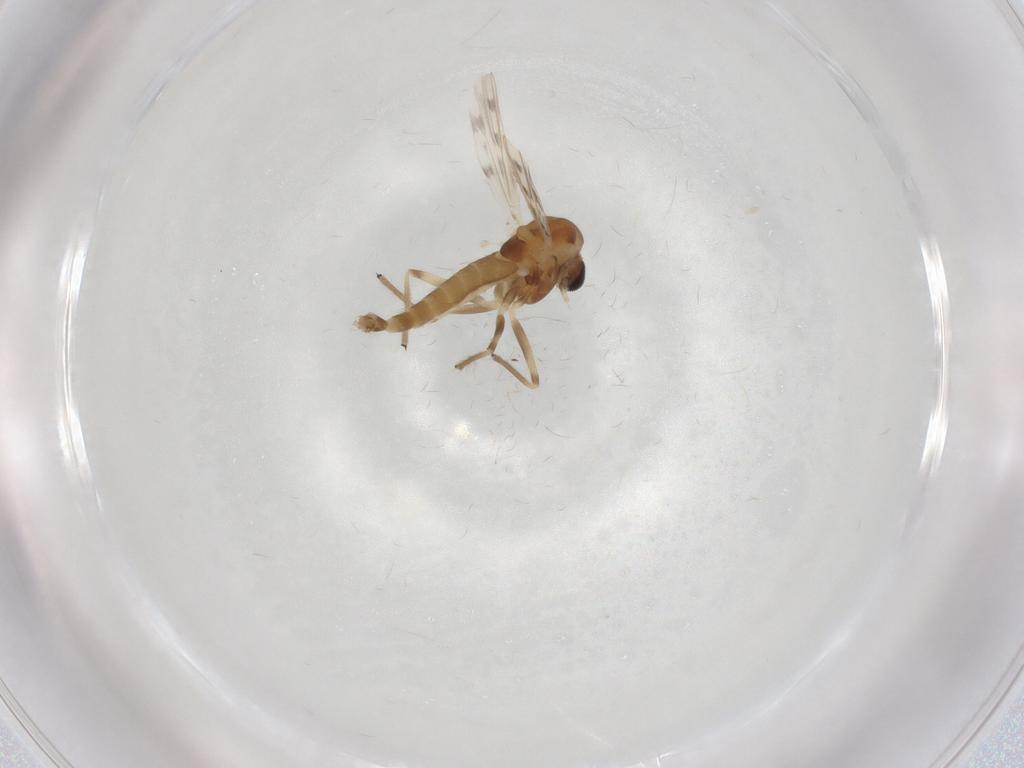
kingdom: Animalia
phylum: Arthropoda
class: Insecta
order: Diptera
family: Chironomidae
